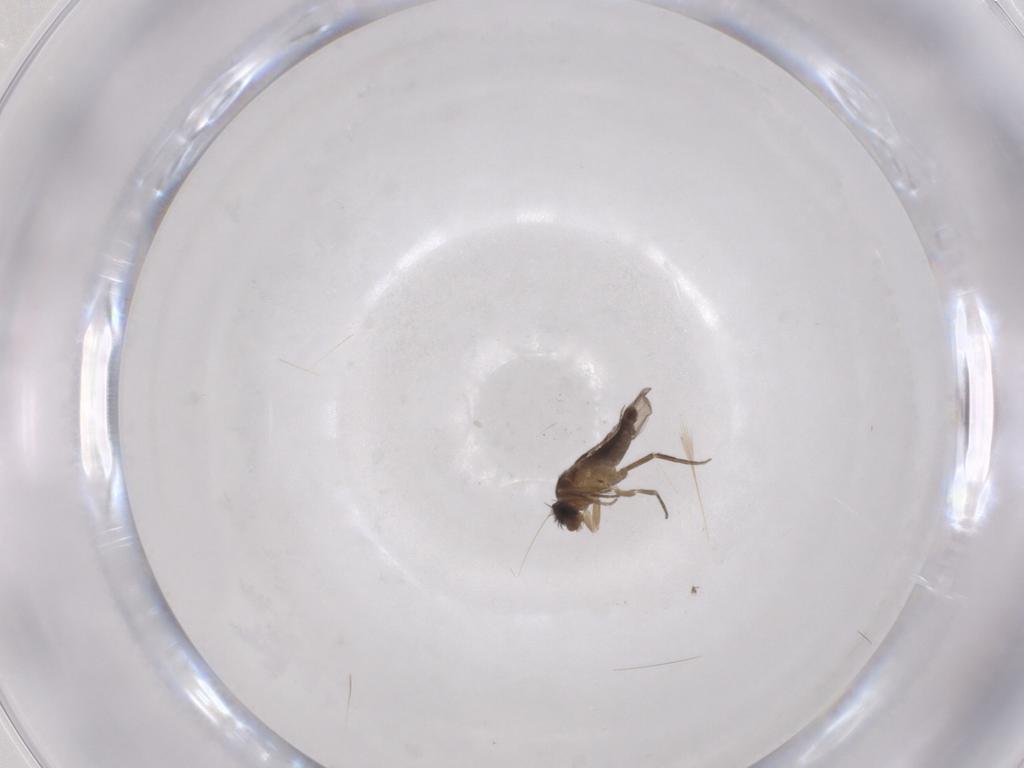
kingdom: Animalia
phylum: Arthropoda
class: Insecta
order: Diptera
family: Phoridae
